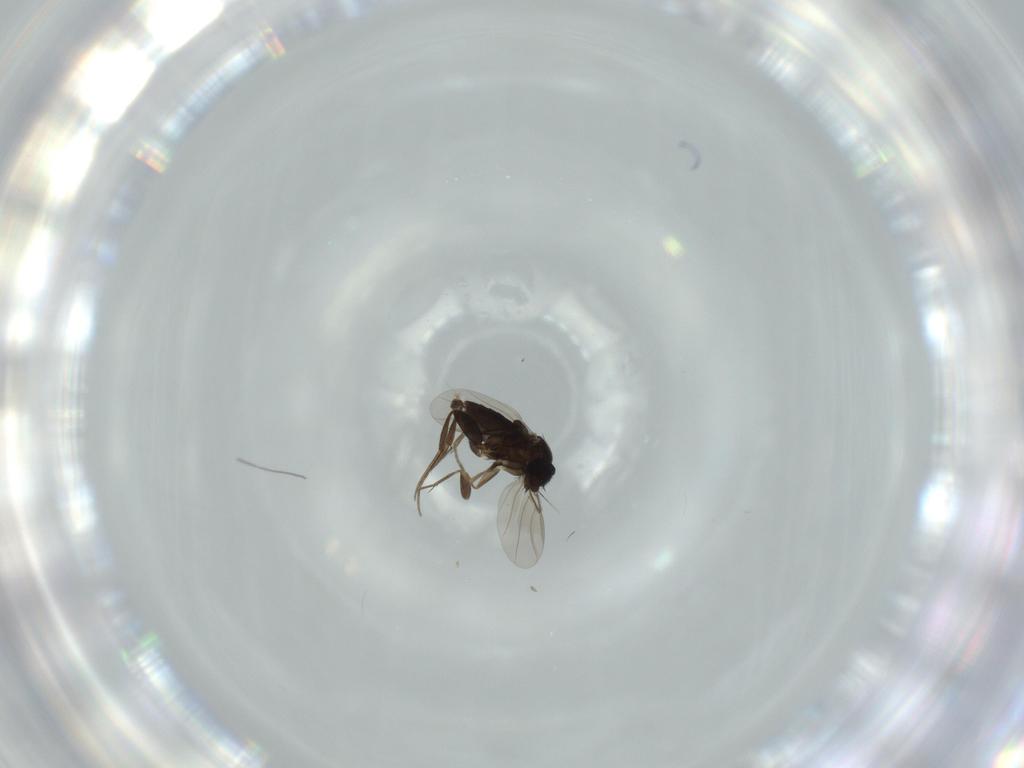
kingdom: Animalia
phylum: Arthropoda
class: Insecta
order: Diptera
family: Phoridae
